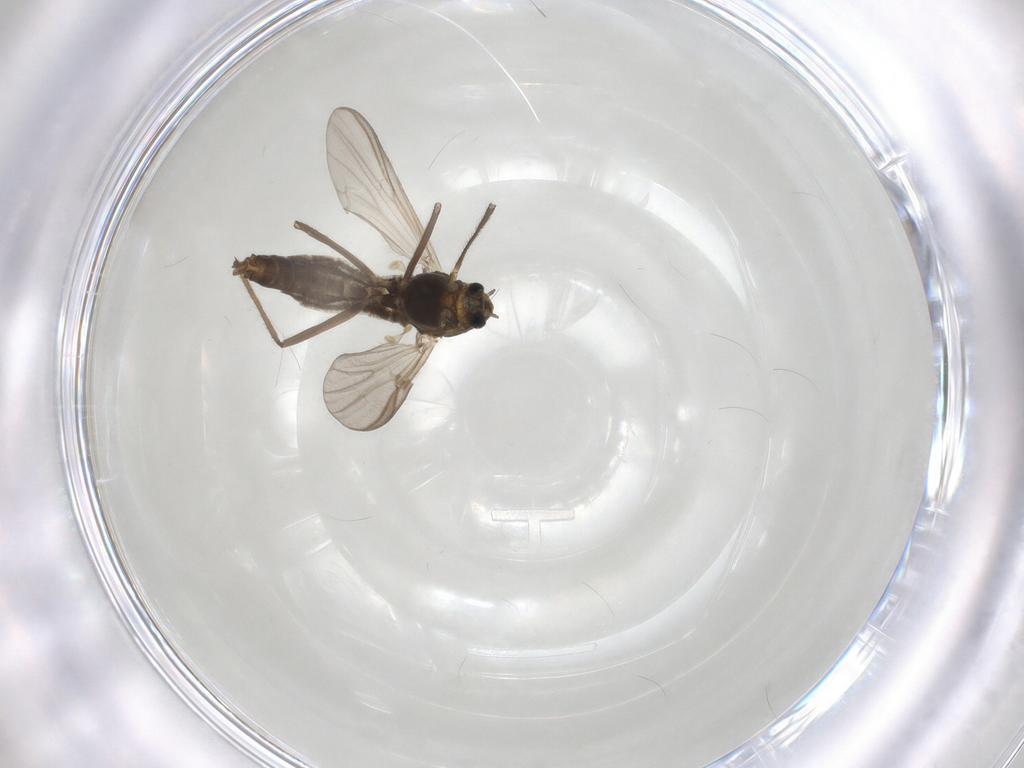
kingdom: Animalia
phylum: Arthropoda
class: Insecta
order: Diptera
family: Chironomidae
